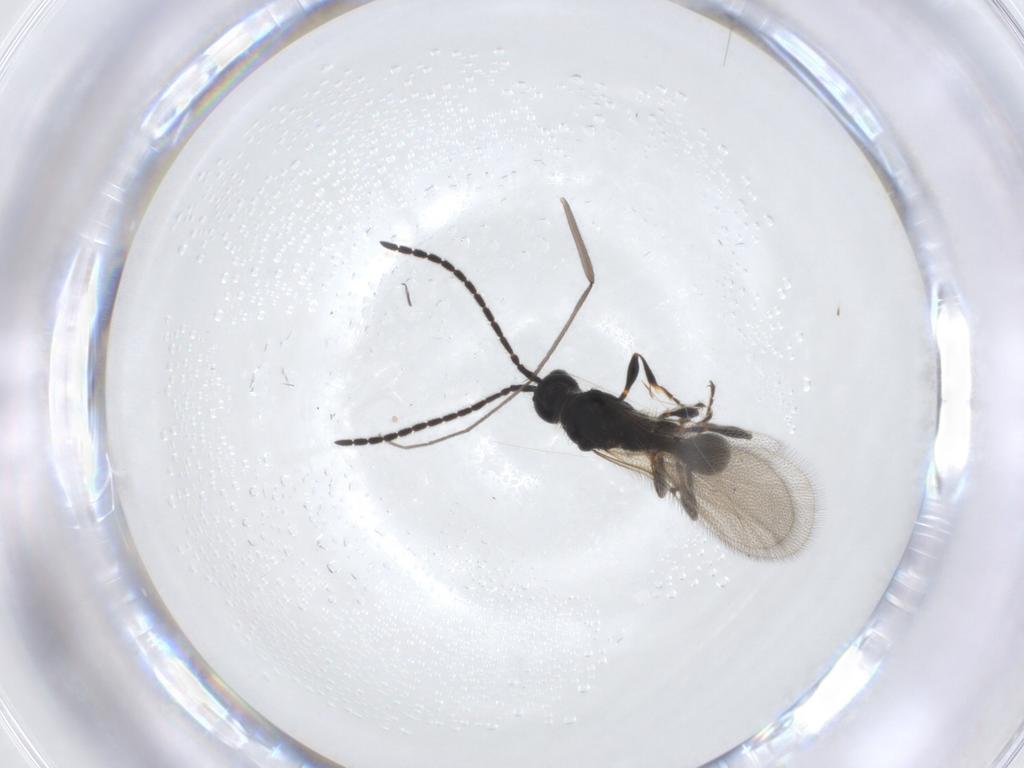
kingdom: Animalia
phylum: Arthropoda
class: Insecta
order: Hymenoptera
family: Diapriidae
